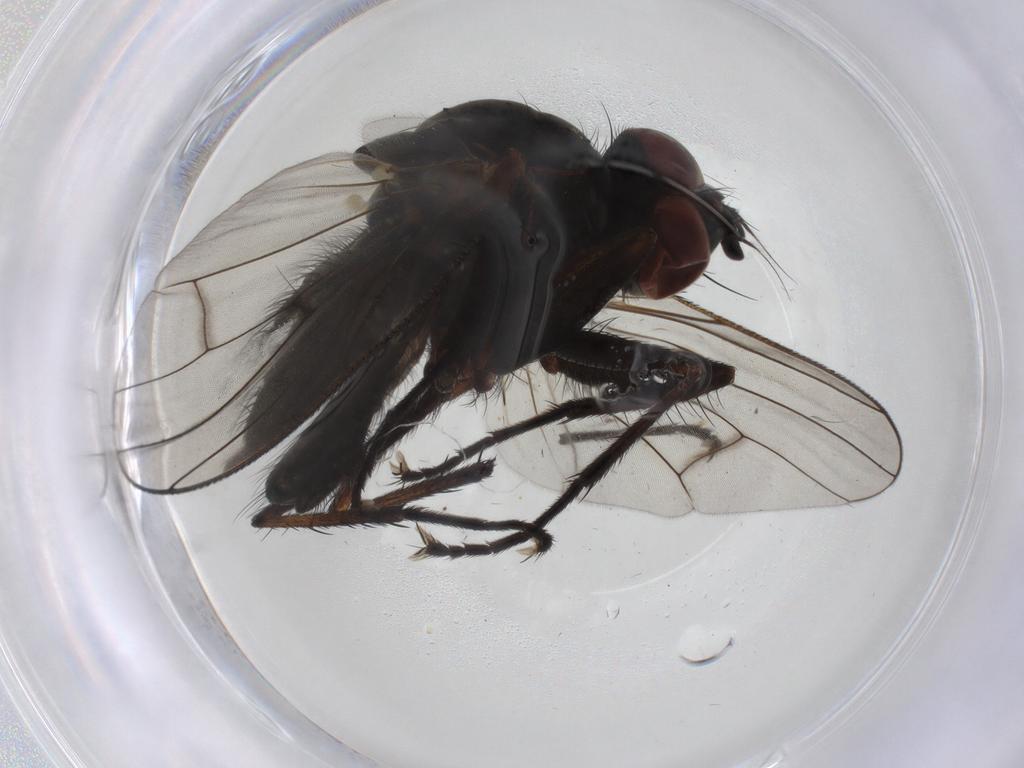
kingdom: Animalia
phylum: Arthropoda
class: Insecta
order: Diptera
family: Anthomyiidae
